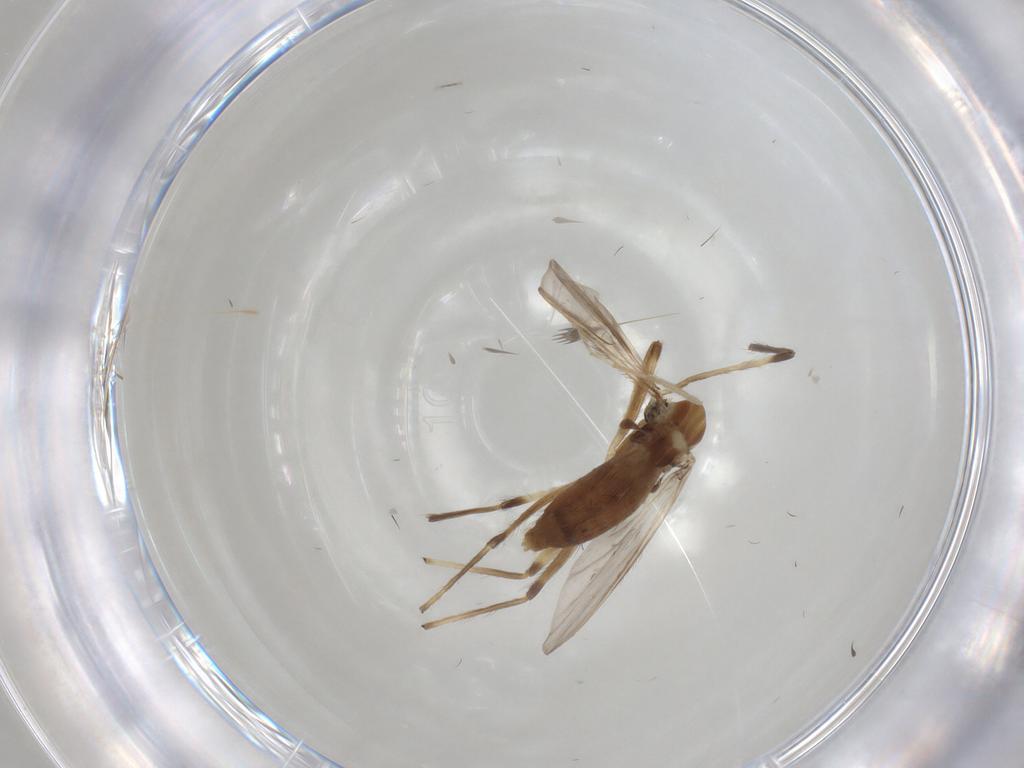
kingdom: Animalia
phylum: Arthropoda
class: Insecta
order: Diptera
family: Chironomidae
